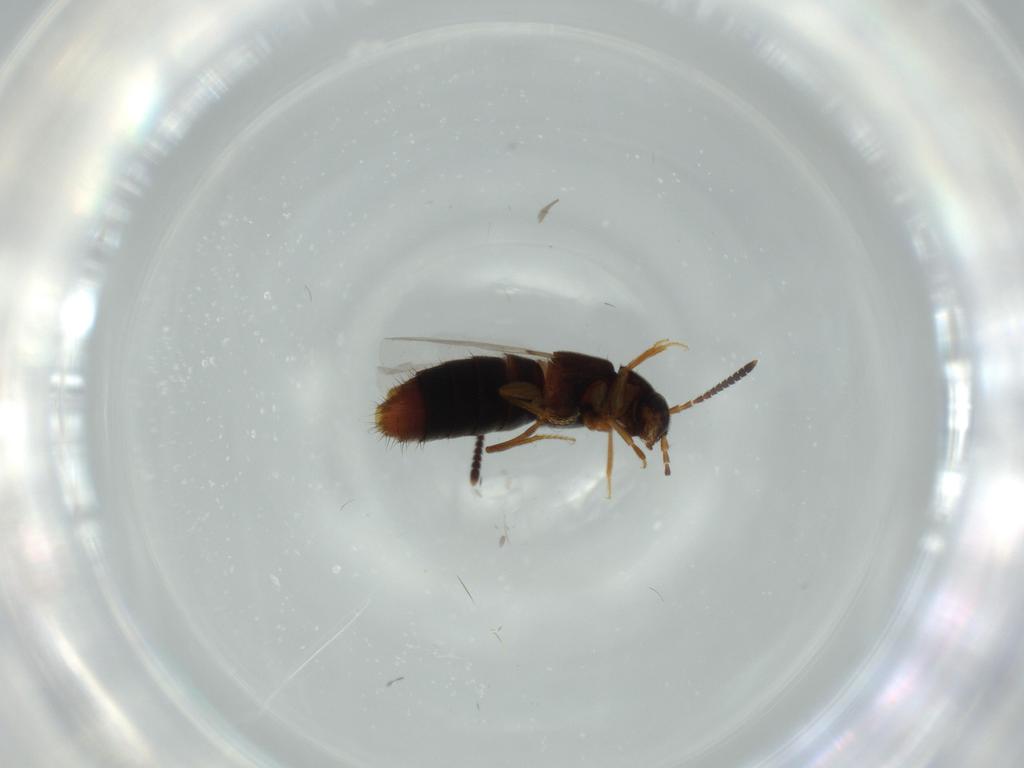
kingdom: Animalia
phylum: Arthropoda
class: Insecta
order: Coleoptera
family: Staphylinidae
